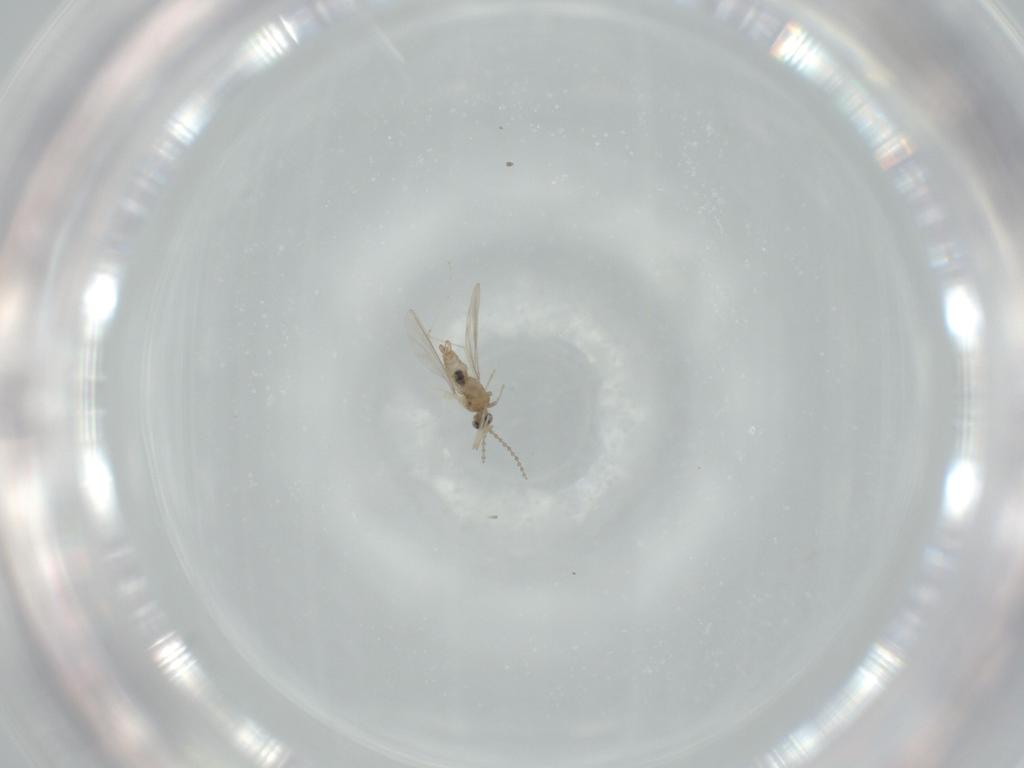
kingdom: Animalia
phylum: Arthropoda
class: Insecta
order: Diptera
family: Cecidomyiidae
